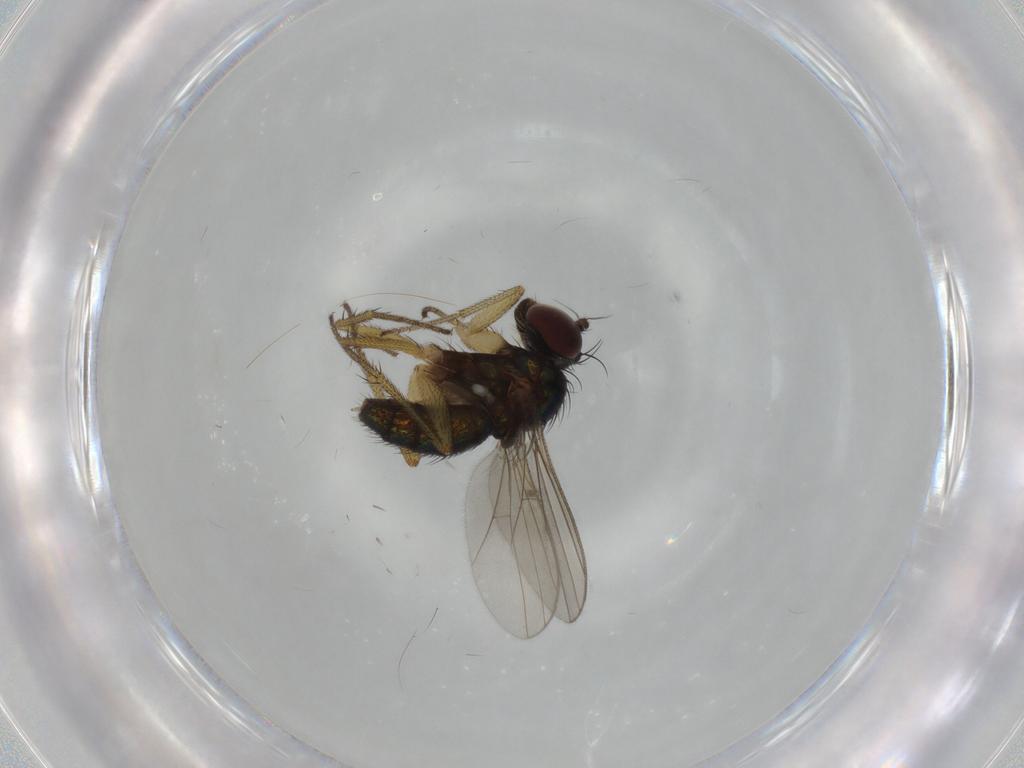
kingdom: Animalia
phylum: Arthropoda
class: Insecta
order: Diptera
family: Dolichopodidae
